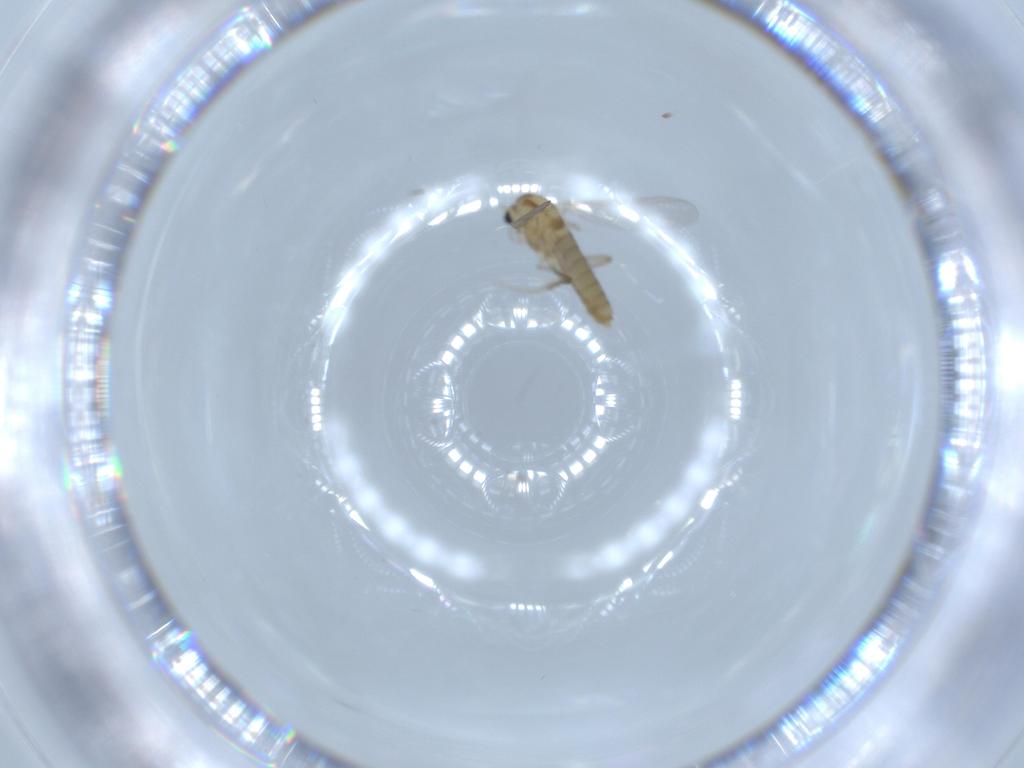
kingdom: Animalia
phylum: Arthropoda
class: Insecta
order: Diptera
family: Chironomidae
